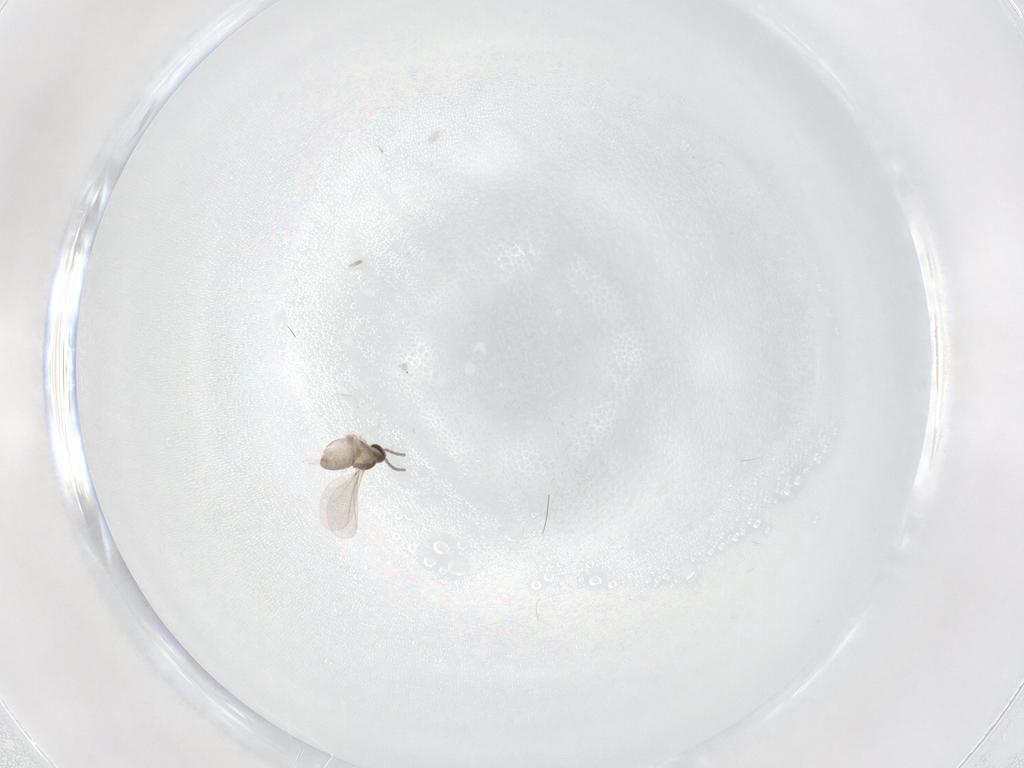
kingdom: Animalia
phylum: Arthropoda
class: Insecta
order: Diptera
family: Cecidomyiidae
